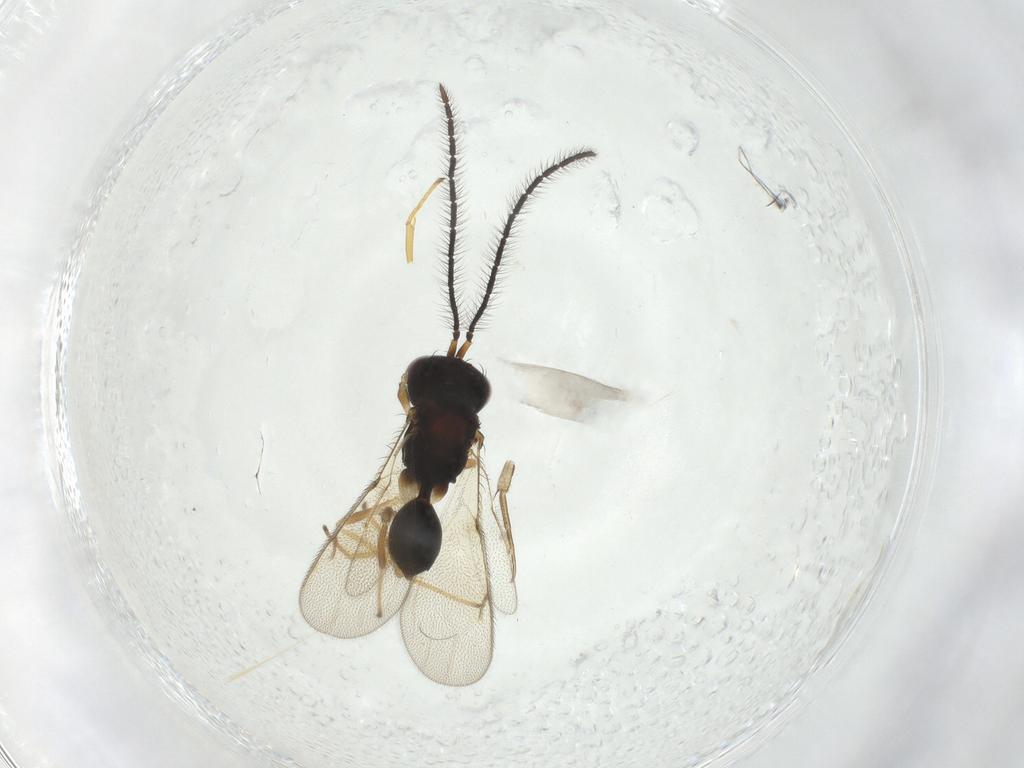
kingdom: Animalia
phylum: Arthropoda
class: Insecta
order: Hymenoptera
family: Diparidae
